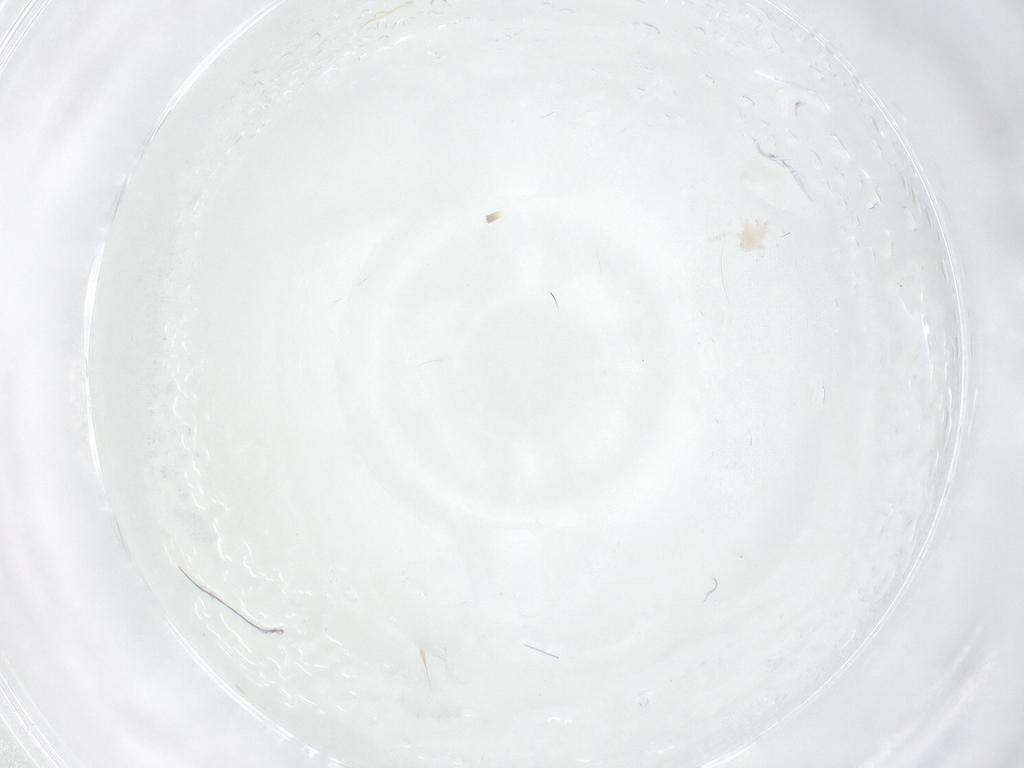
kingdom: Animalia
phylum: Arthropoda
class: Arachnida
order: Mesostigmata
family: Melicharidae
